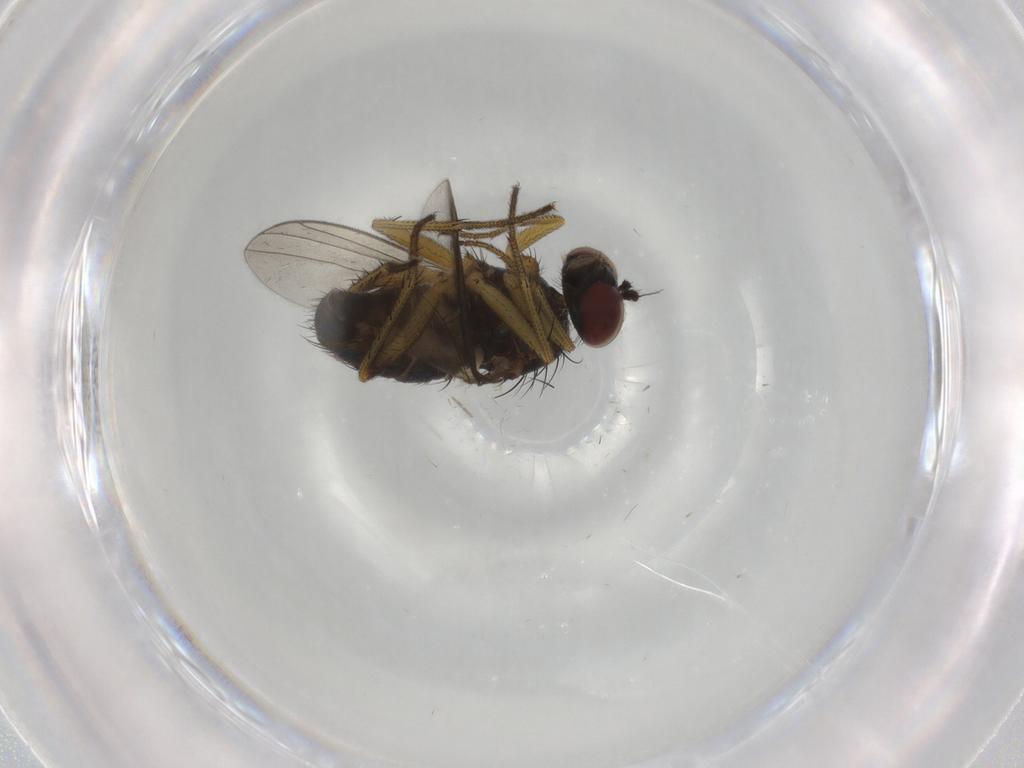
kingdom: Animalia
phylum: Arthropoda
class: Insecta
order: Diptera
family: Dolichopodidae
